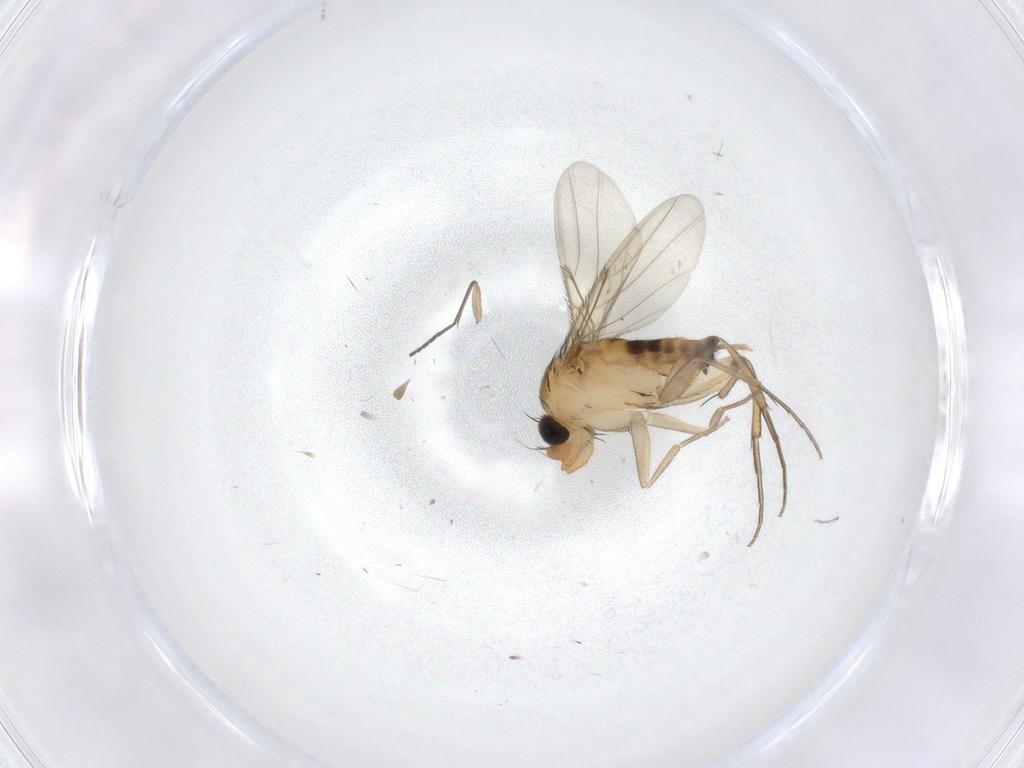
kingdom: Animalia
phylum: Arthropoda
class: Insecta
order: Diptera
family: Phoridae
